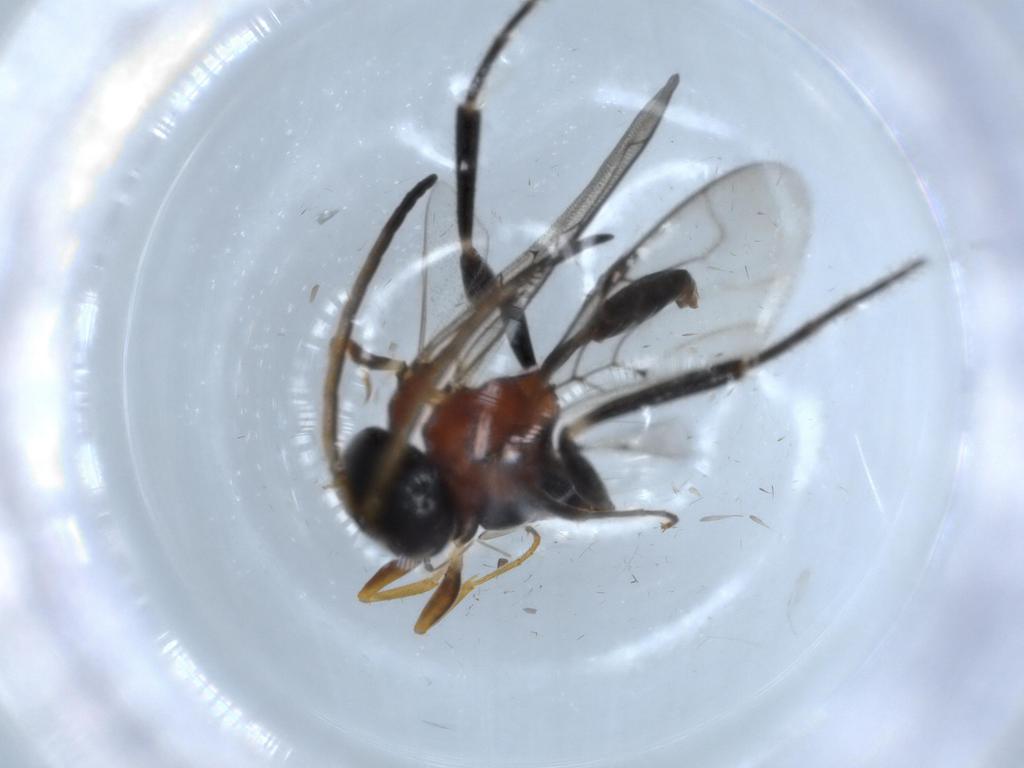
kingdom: Animalia
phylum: Arthropoda
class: Insecta
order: Hymenoptera
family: Evaniidae
